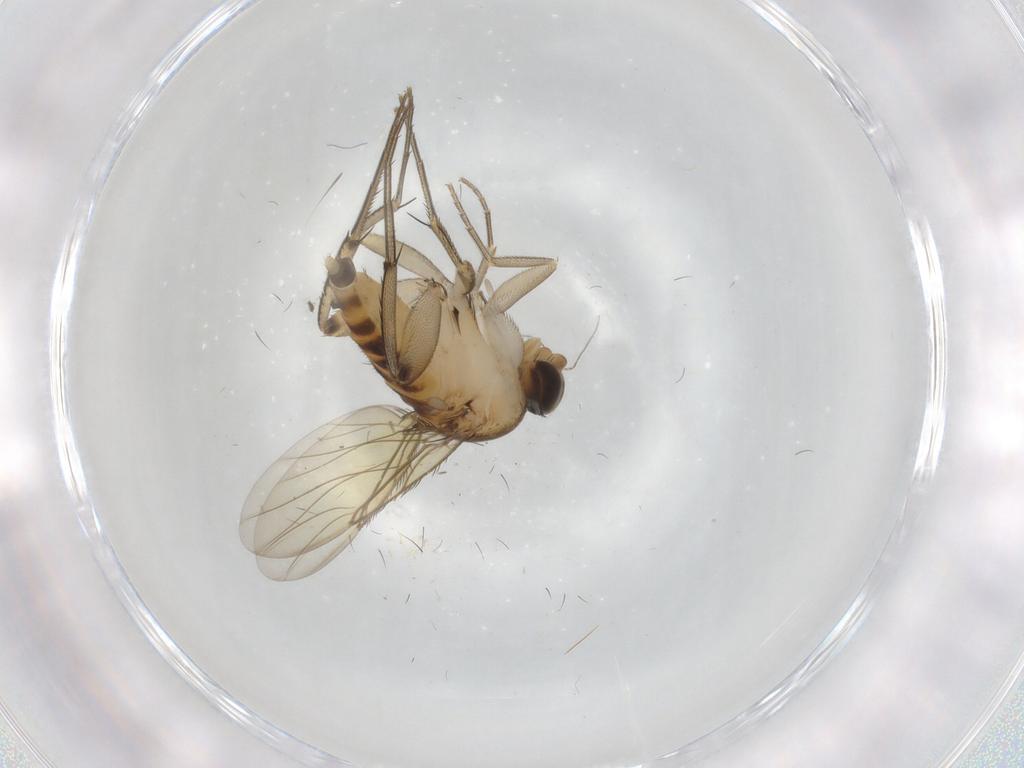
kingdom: Animalia
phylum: Arthropoda
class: Insecta
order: Diptera
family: Phoridae
